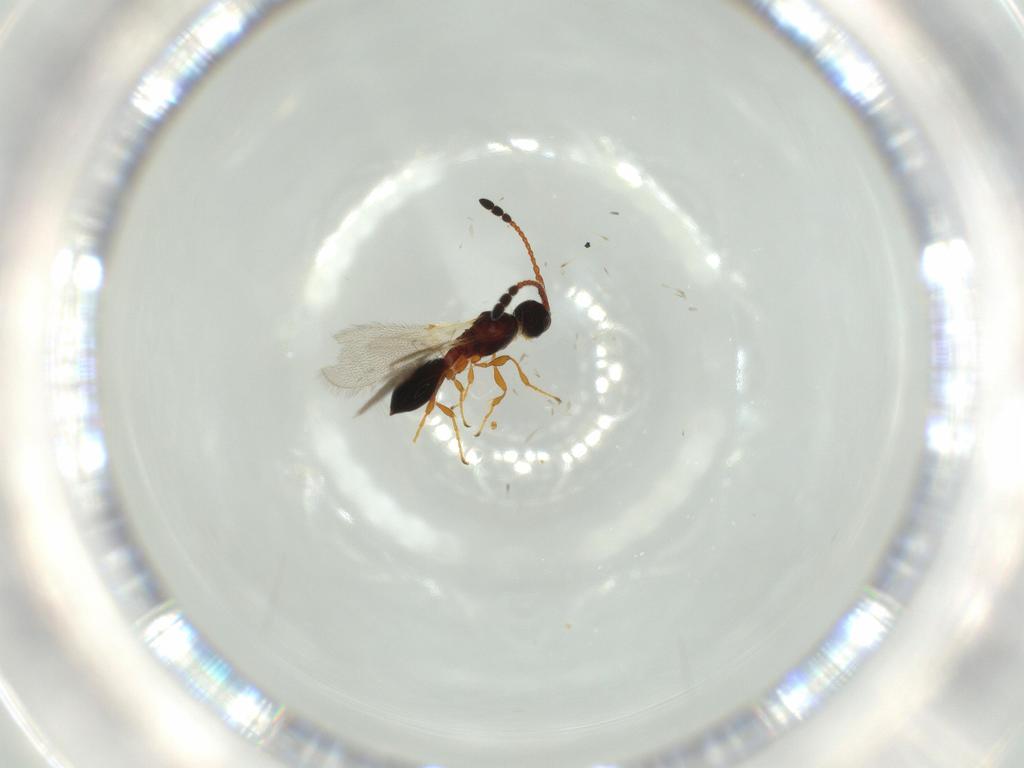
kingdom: Animalia
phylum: Arthropoda
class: Insecta
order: Hymenoptera
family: Diapriidae
